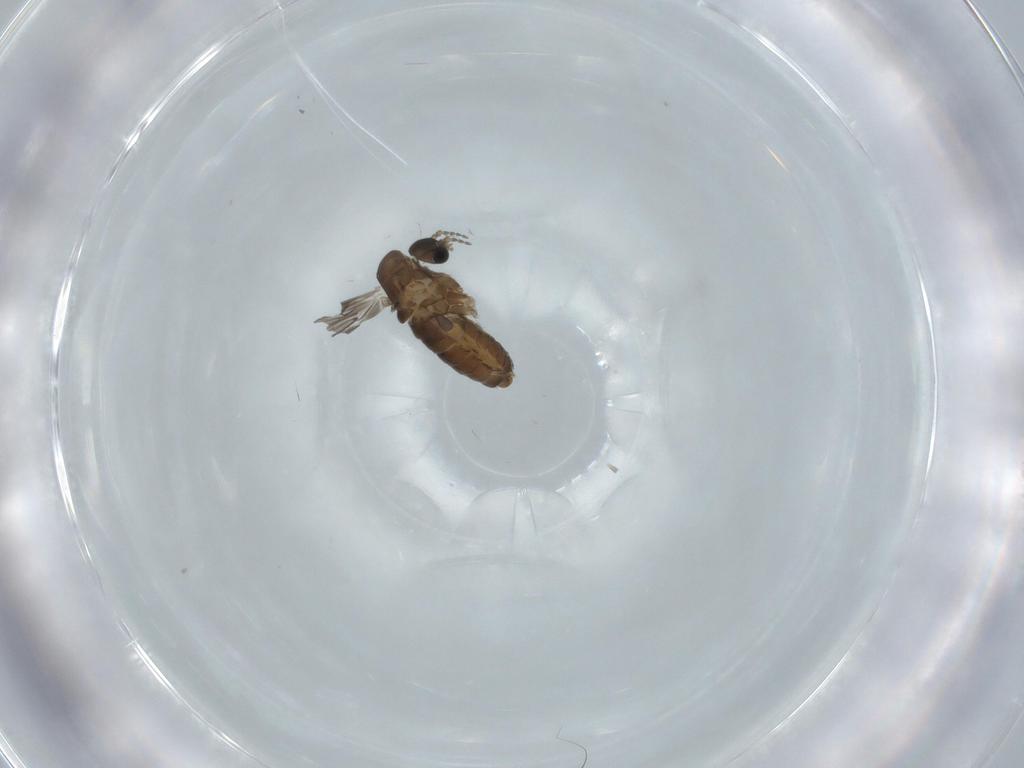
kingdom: Animalia
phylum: Arthropoda
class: Insecta
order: Diptera
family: Psychodidae
